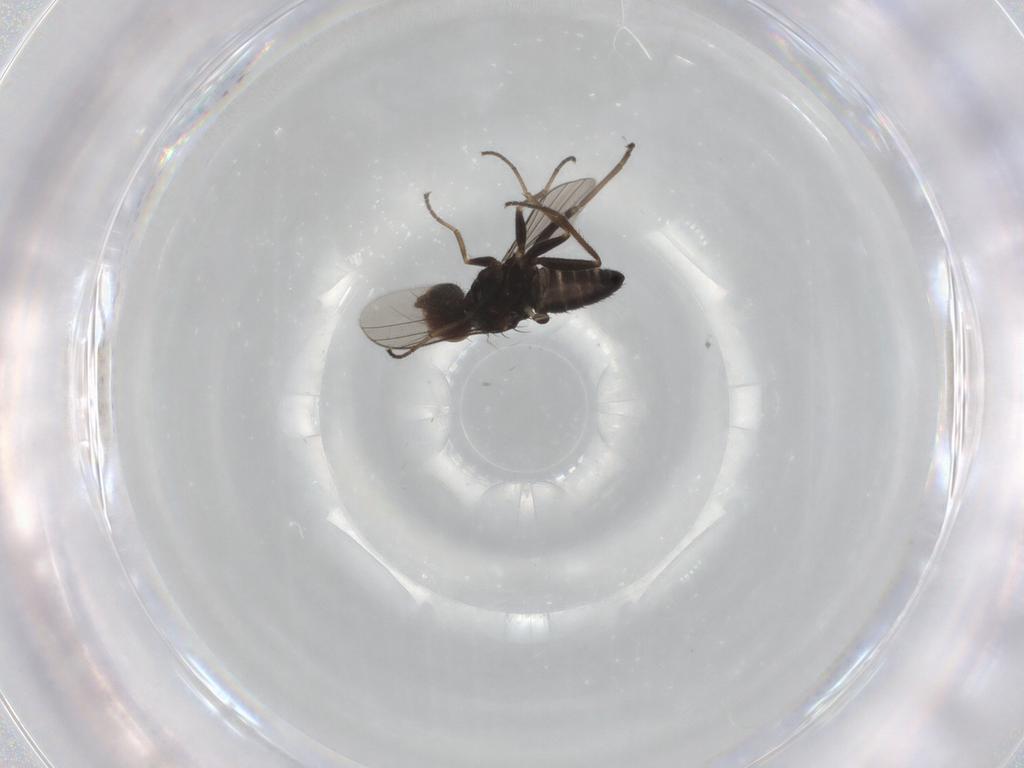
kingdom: Animalia
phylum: Arthropoda
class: Insecta
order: Diptera
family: Dolichopodidae
